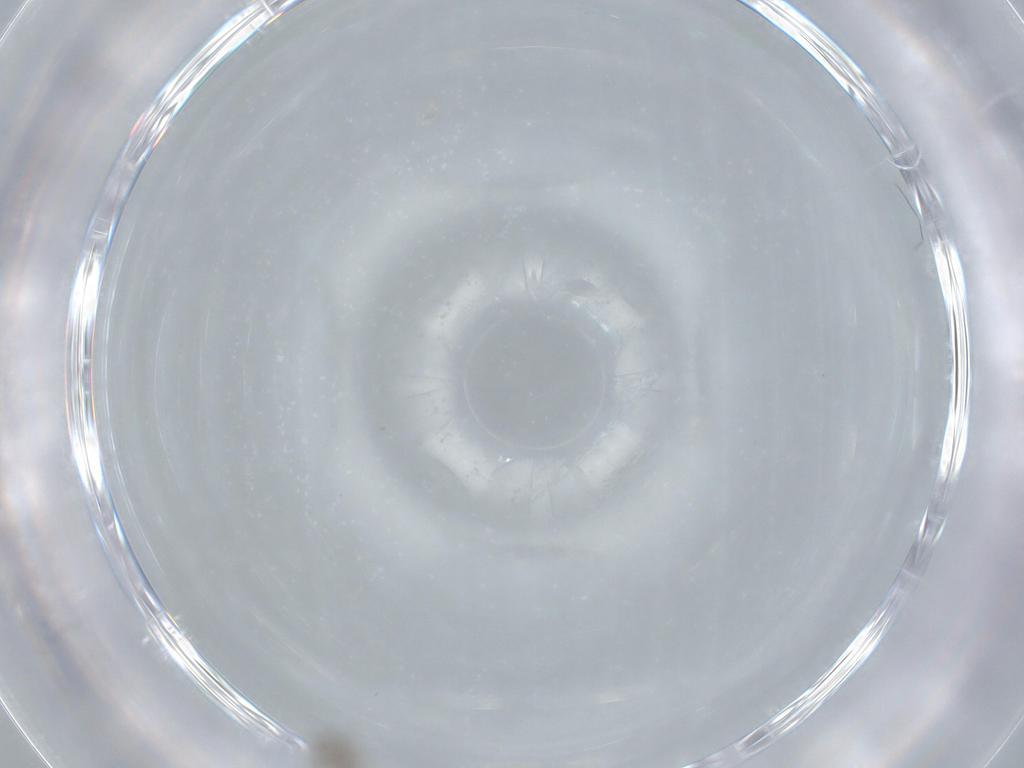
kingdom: Animalia
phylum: Arthropoda
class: Insecta
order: Diptera
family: Cecidomyiidae
